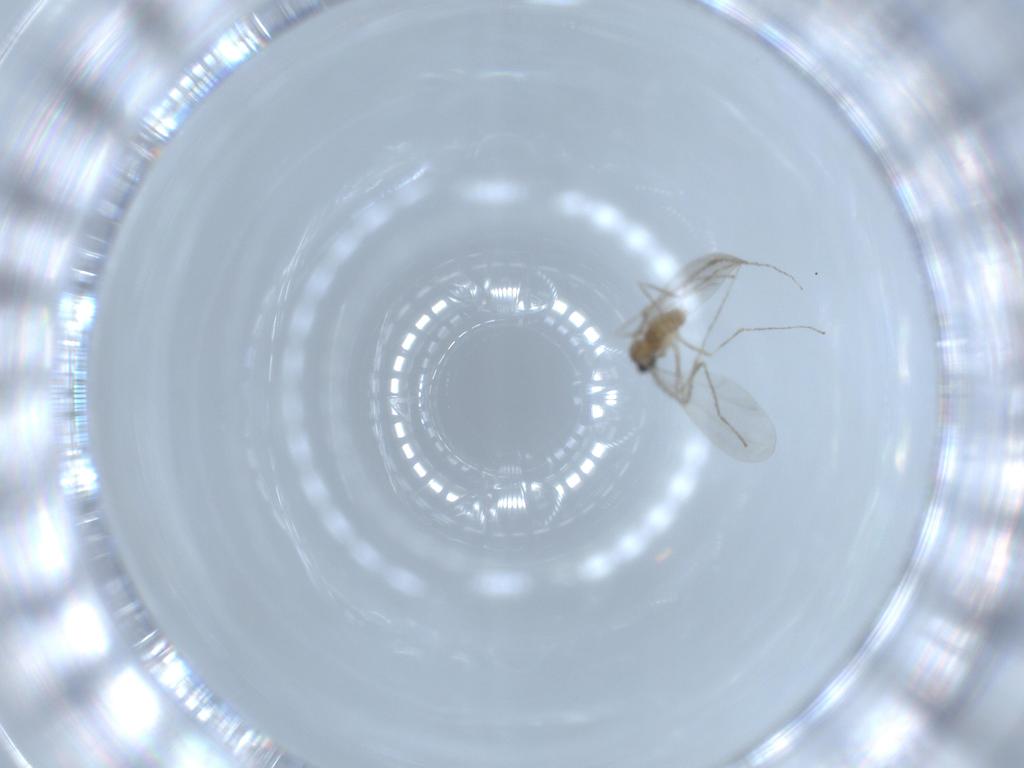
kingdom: Animalia
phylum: Arthropoda
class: Insecta
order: Diptera
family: Cecidomyiidae
